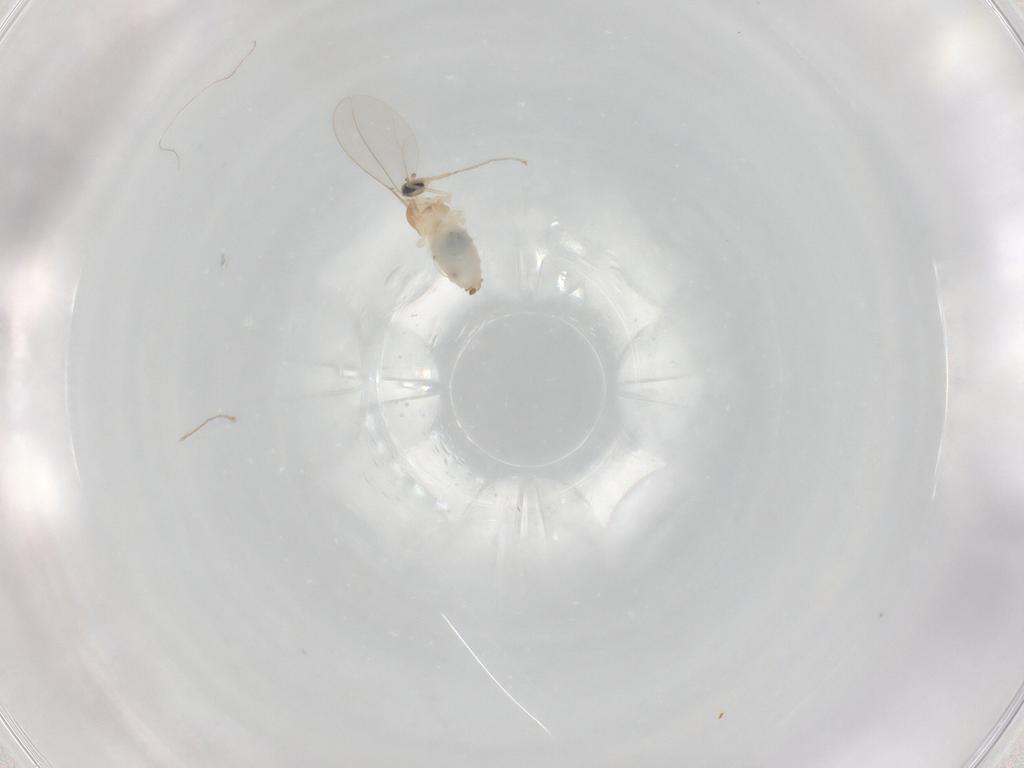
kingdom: Animalia
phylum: Arthropoda
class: Insecta
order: Diptera
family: Cecidomyiidae
